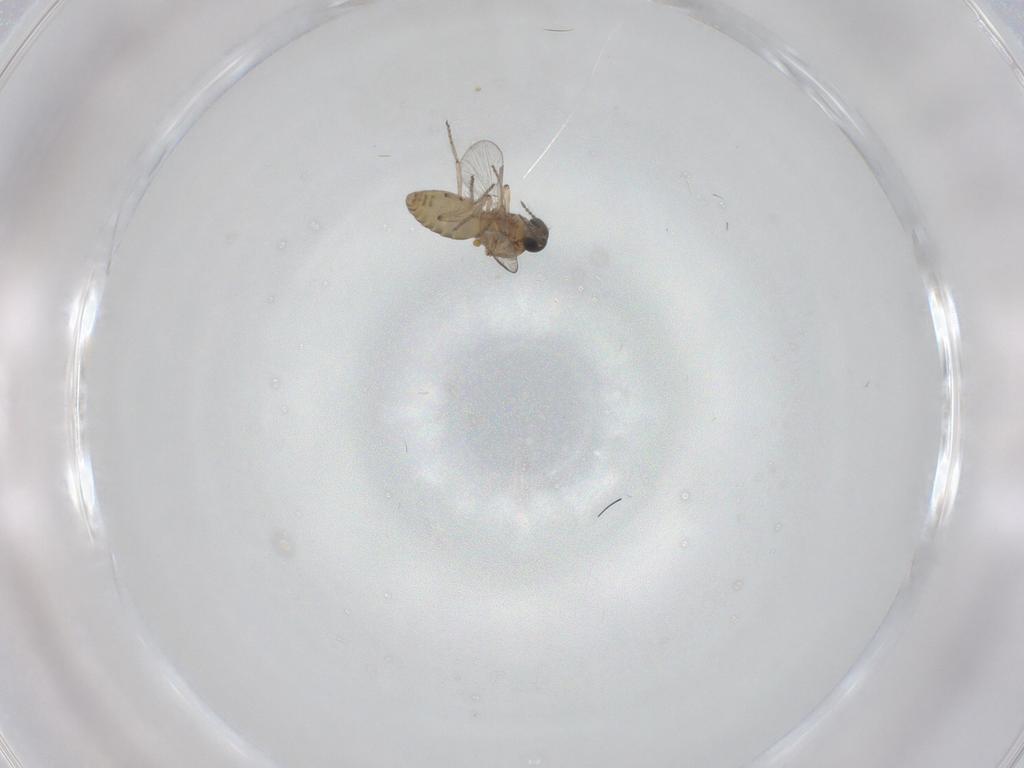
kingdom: Animalia
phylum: Arthropoda
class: Insecta
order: Diptera
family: Ceratopogonidae
